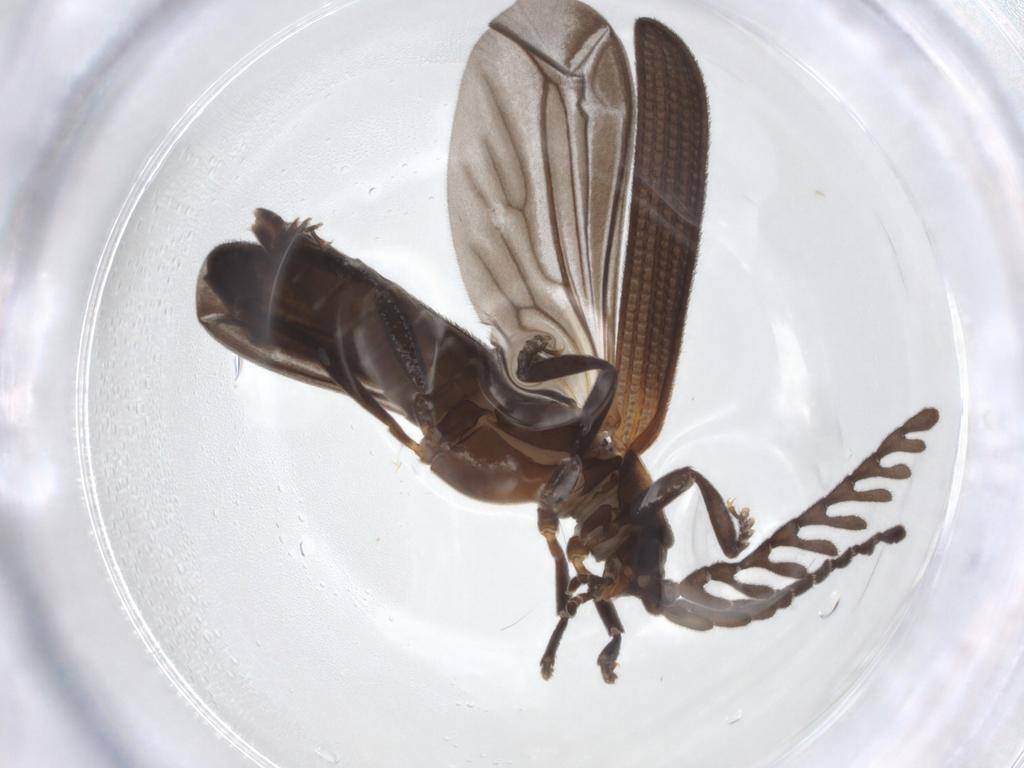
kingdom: Animalia
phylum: Arthropoda
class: Insecta
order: Coleoptera
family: Lycidae
